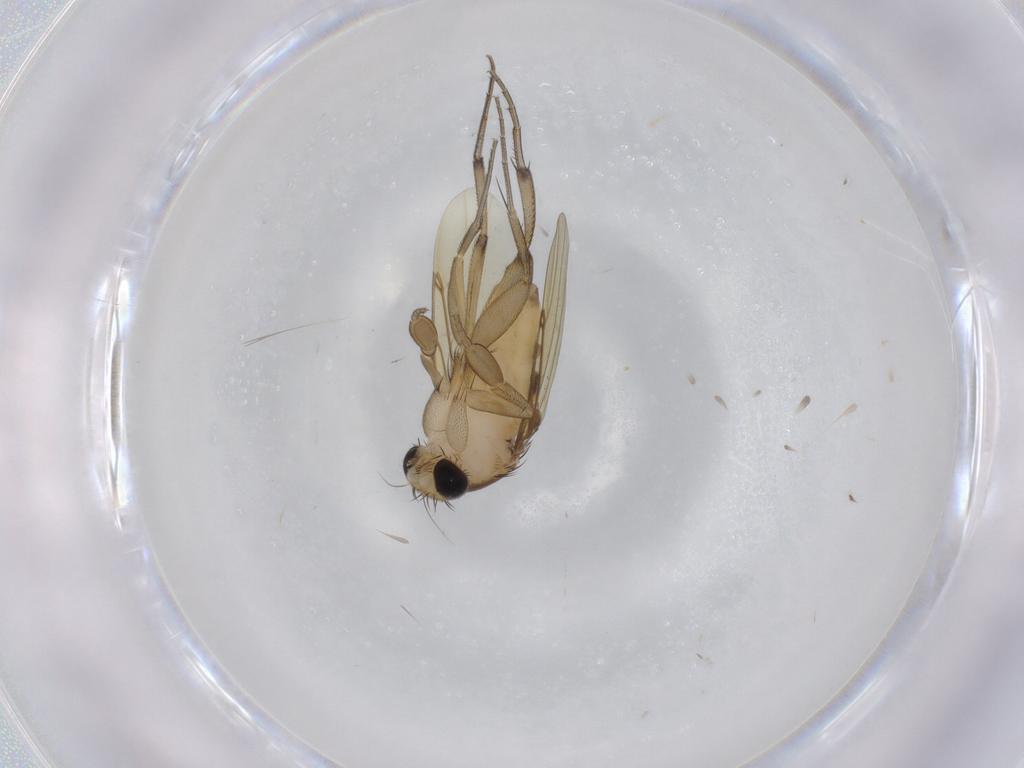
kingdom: Animalia
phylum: Arthropoda
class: Insecta
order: Diptera
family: Phoridae
